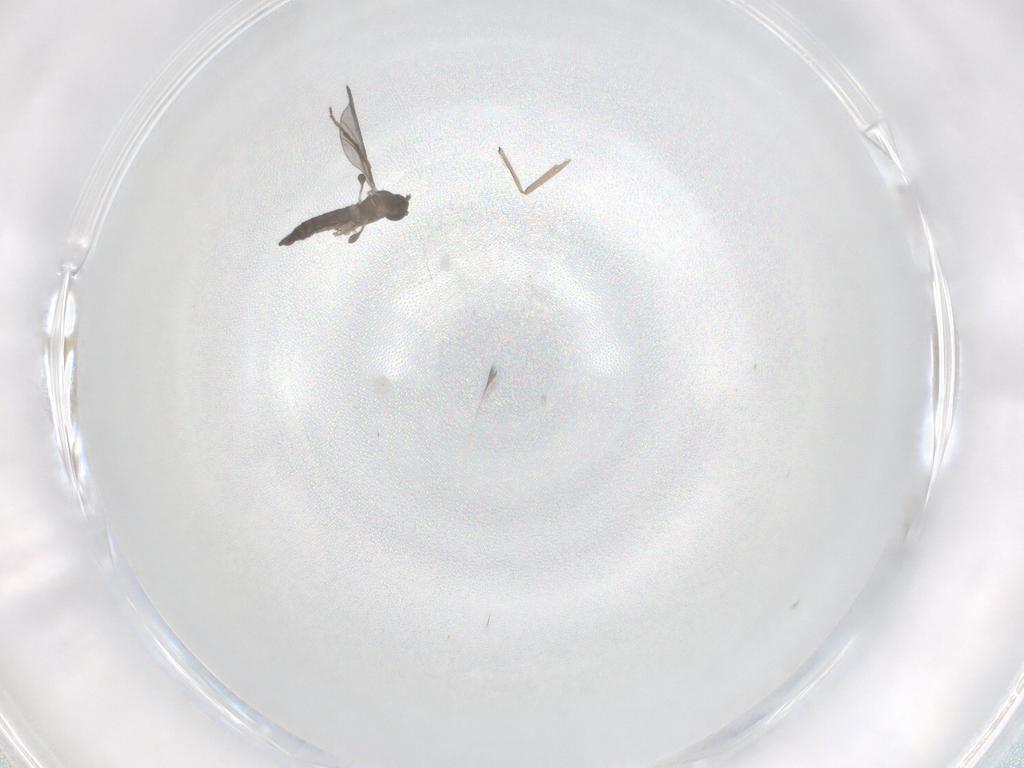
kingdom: Animalia
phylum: Arthropoda
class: Insecta
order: Diptera
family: Chironomidae
